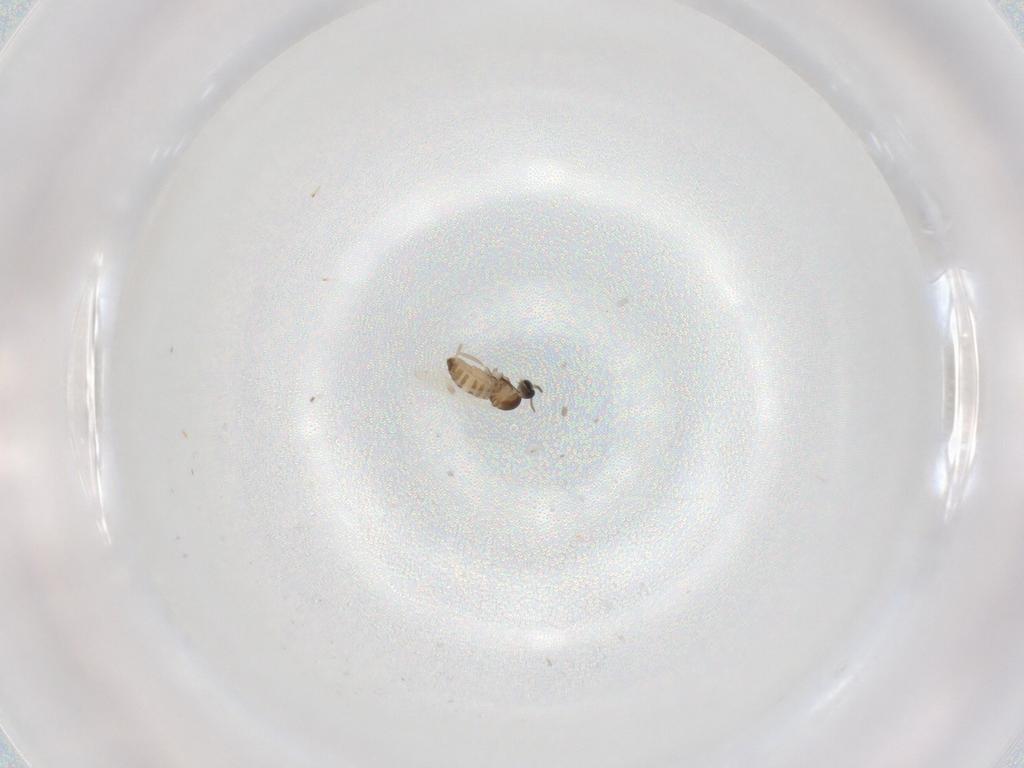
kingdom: Animalia
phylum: Arthropoda
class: Insecta
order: Diptera
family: Cecidomyiidae
